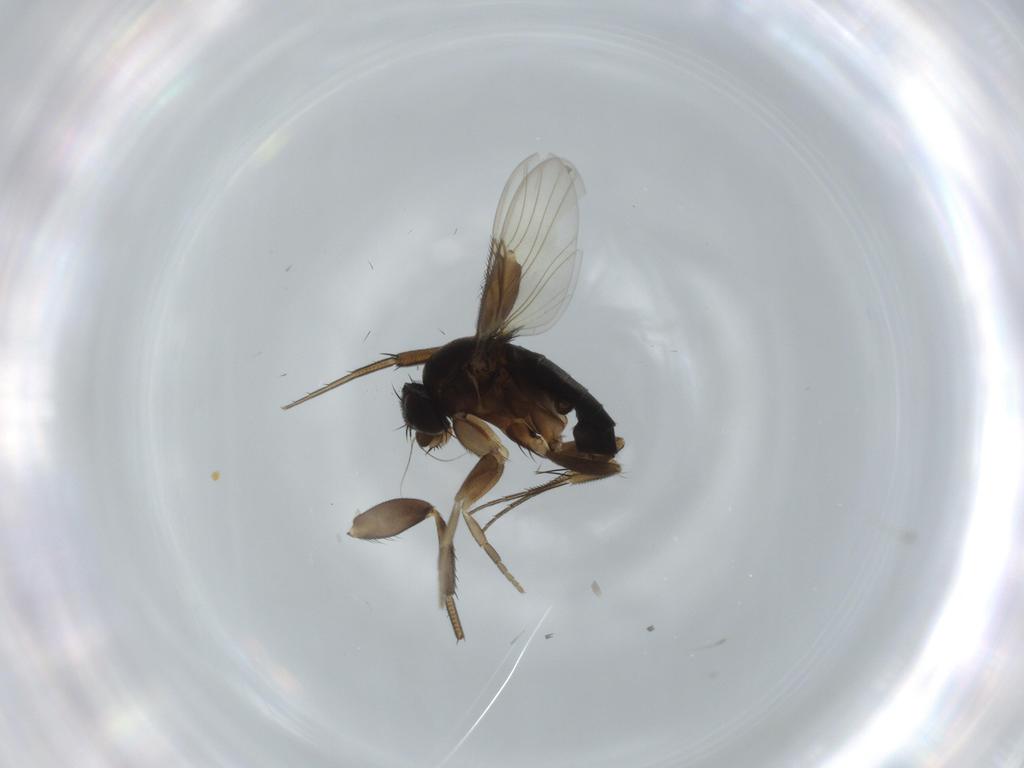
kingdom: Animalia
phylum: Arthropoda
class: Insecta
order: Diptera
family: Phoridae
